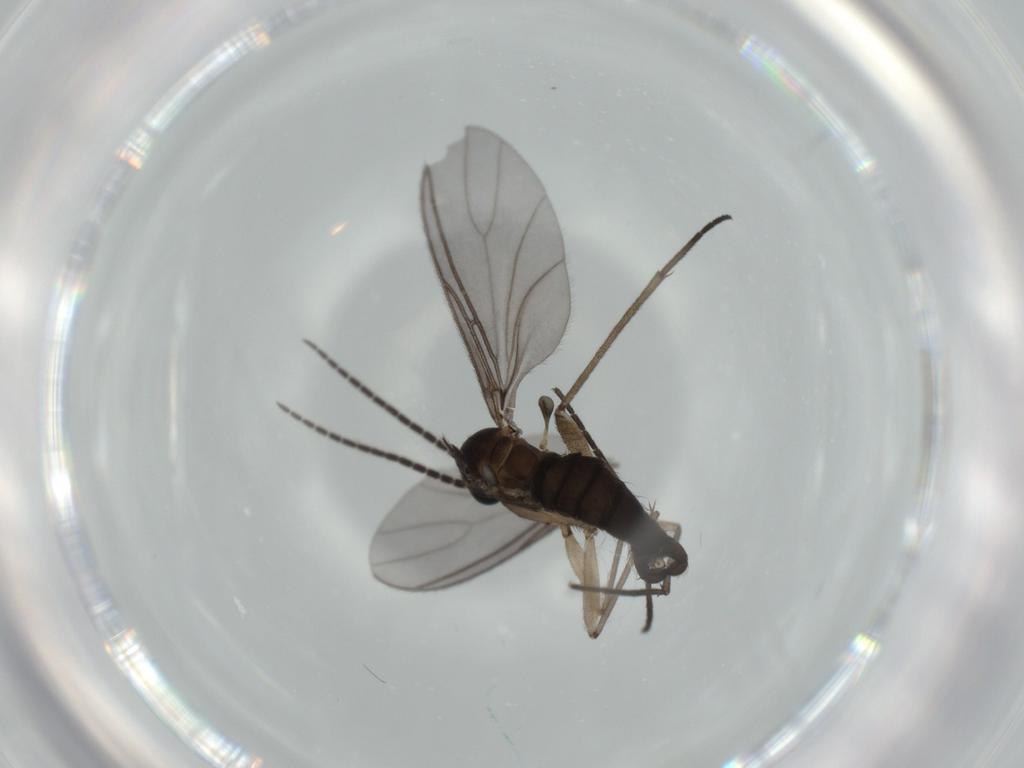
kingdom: Animalia
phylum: Arthropoda
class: Insecta
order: Diptera
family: Sciaridae
